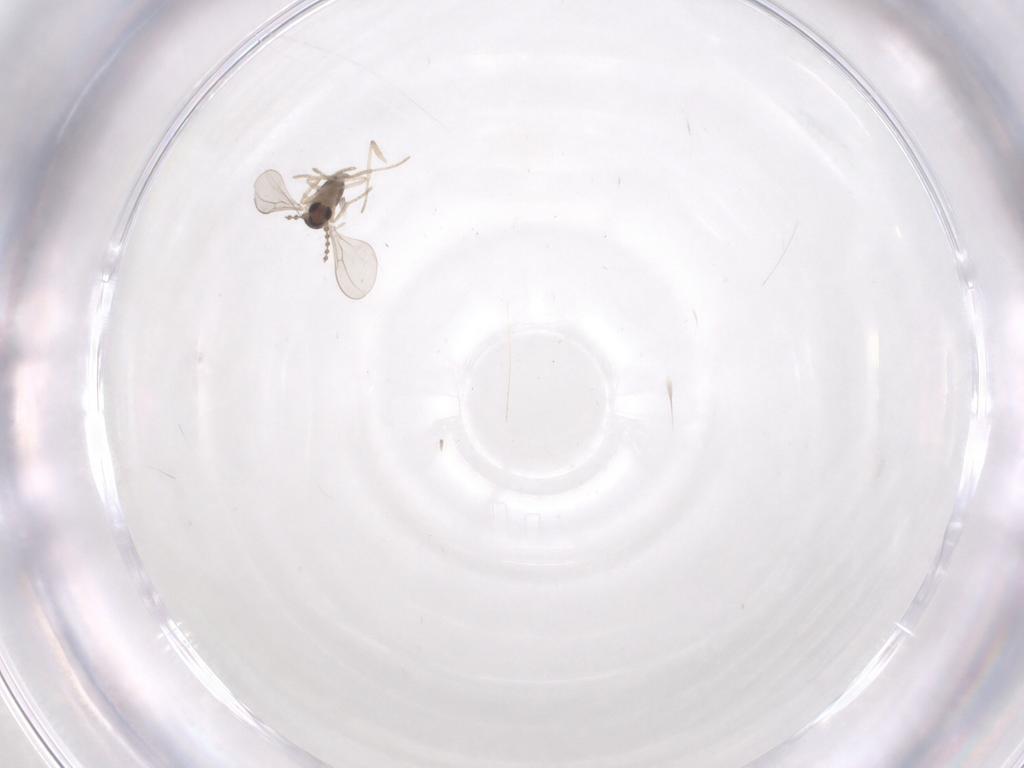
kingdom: Animalia
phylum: Arthropoda
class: Insecta
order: Diptera
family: Cecidomyiidae
